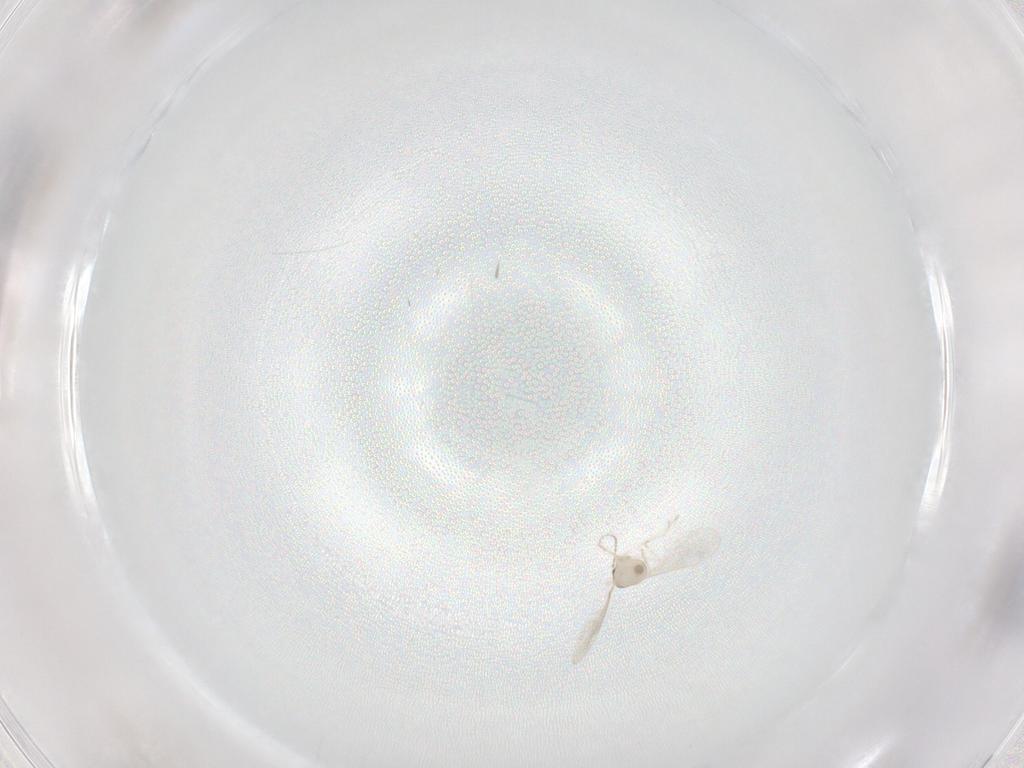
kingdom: Animalia
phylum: Arthropoda
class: Insecta
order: Diptera
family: Cecidomyiidae
